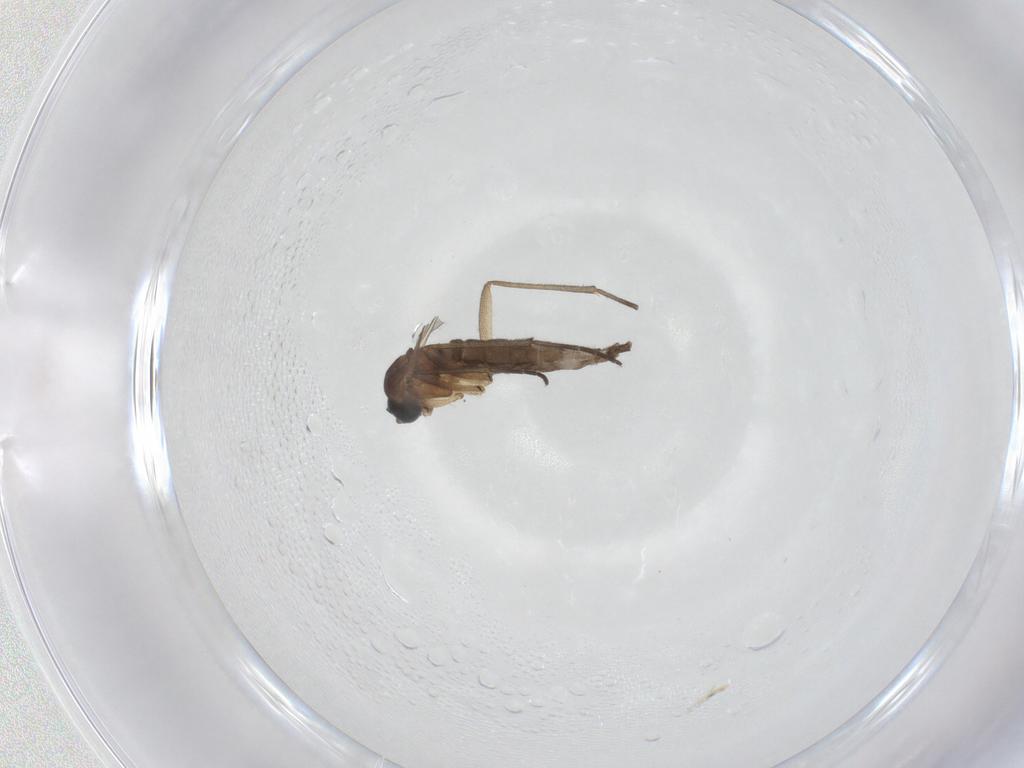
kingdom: Animalia
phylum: Arthropoda
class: Insecta
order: Diptera
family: Sciaridae
